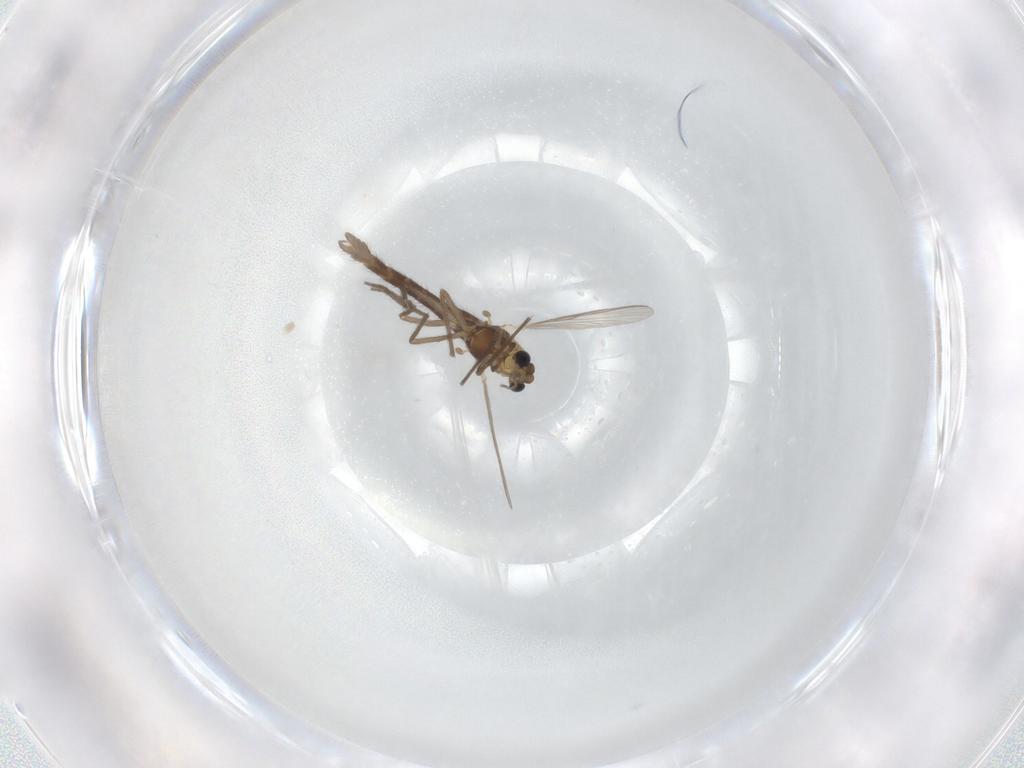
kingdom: Animalia
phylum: Arthropoda
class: Insecta
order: Diptera
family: Chironomidae
